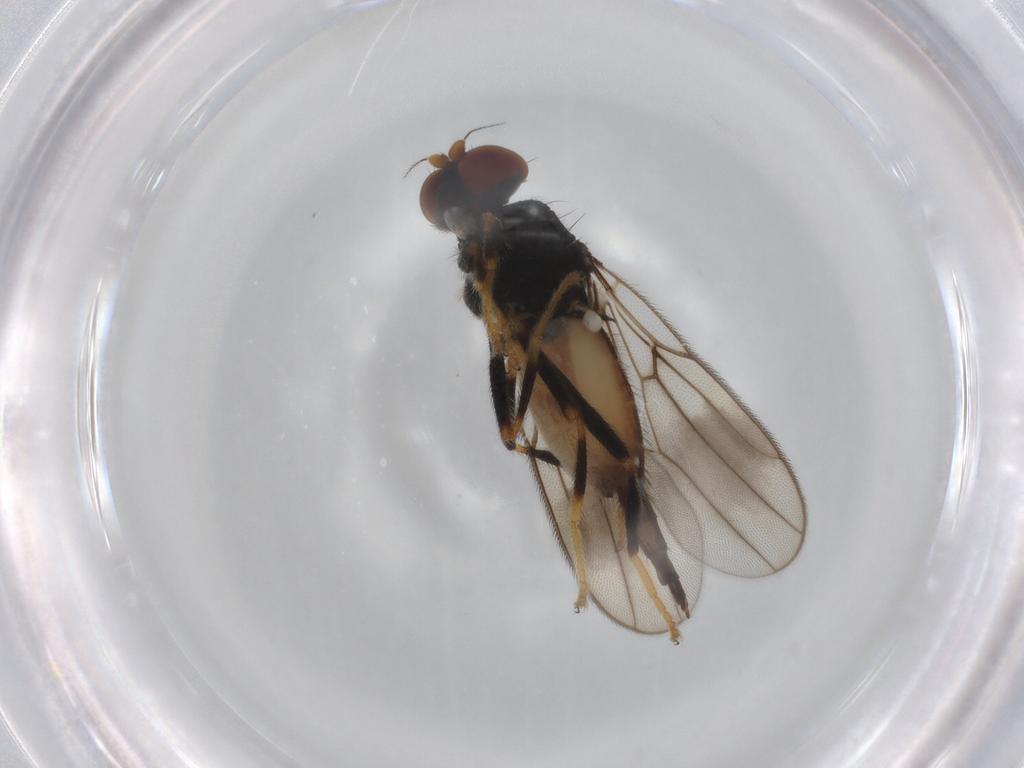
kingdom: Animalia
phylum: Arthropoda
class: Insecta
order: Diptera
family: Chloropidae
